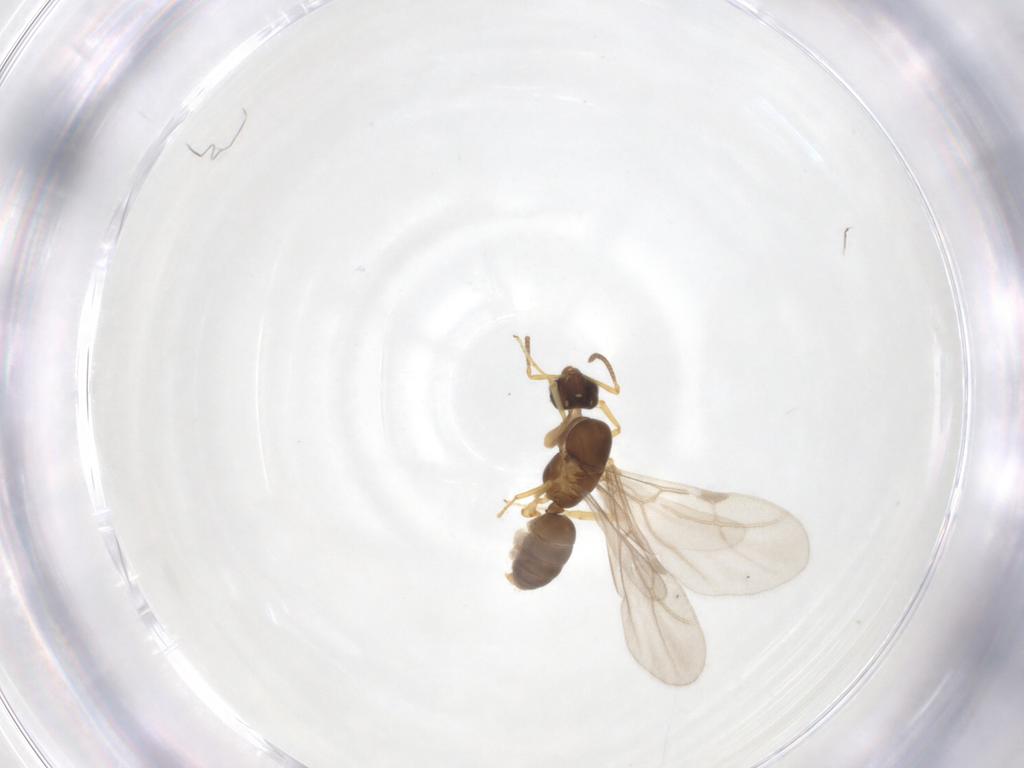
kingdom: Animalia
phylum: Arthropoda
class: Insecta
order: Hymenoptera
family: Formicidae
